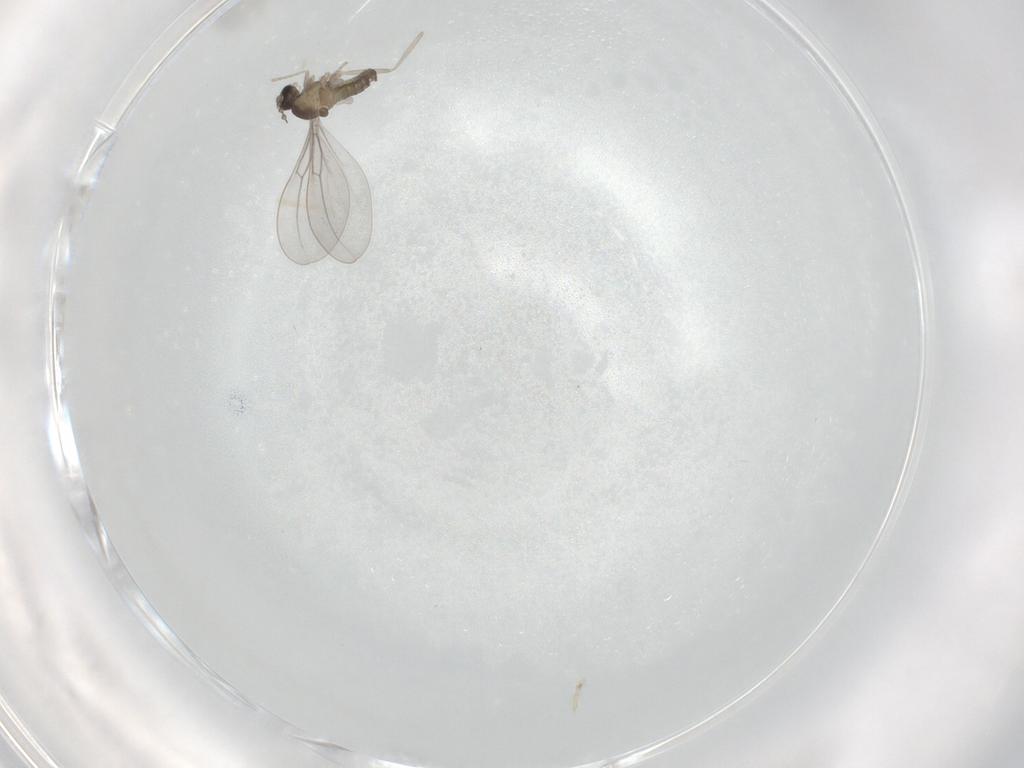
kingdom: Animalia
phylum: Arthropoda
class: Insecta
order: Diptera
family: Cecidomyiidae
